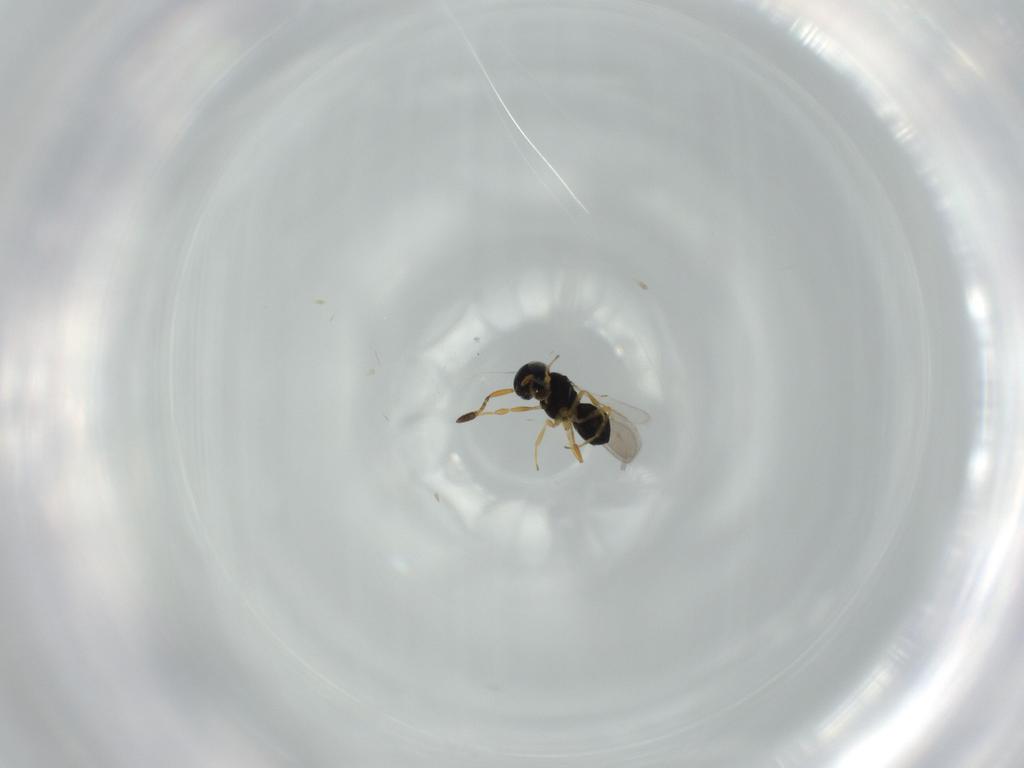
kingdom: Animalia
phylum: Arthropoda
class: Insecta
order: Hymenoptera
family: Scelionidae
